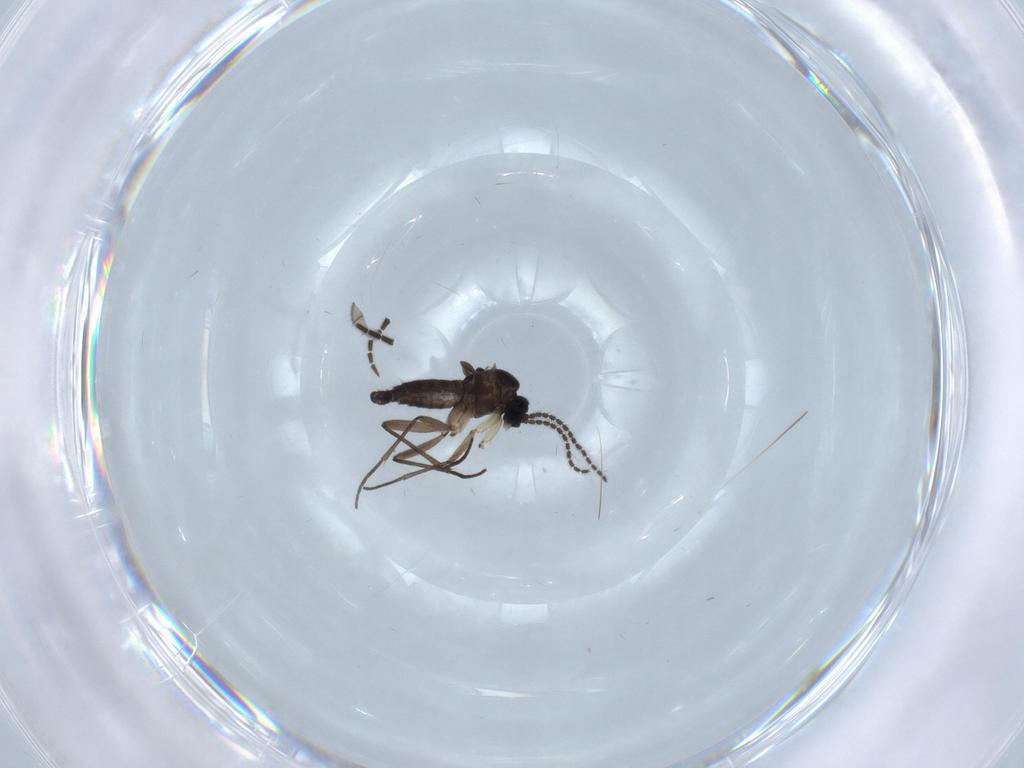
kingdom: Animalia
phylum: Arthropoda
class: Insecta
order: Diptera
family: Sciaridae
